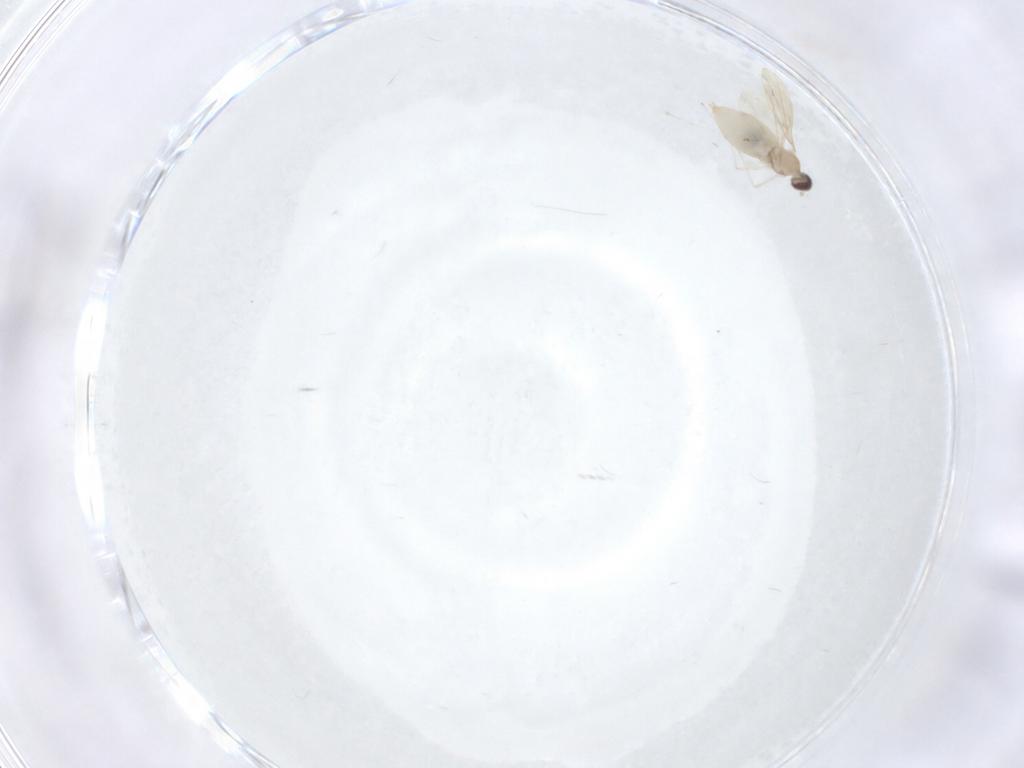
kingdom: Animalia
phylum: Arthropoda
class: Insecta
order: Diptera
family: Cecidomyiidae
